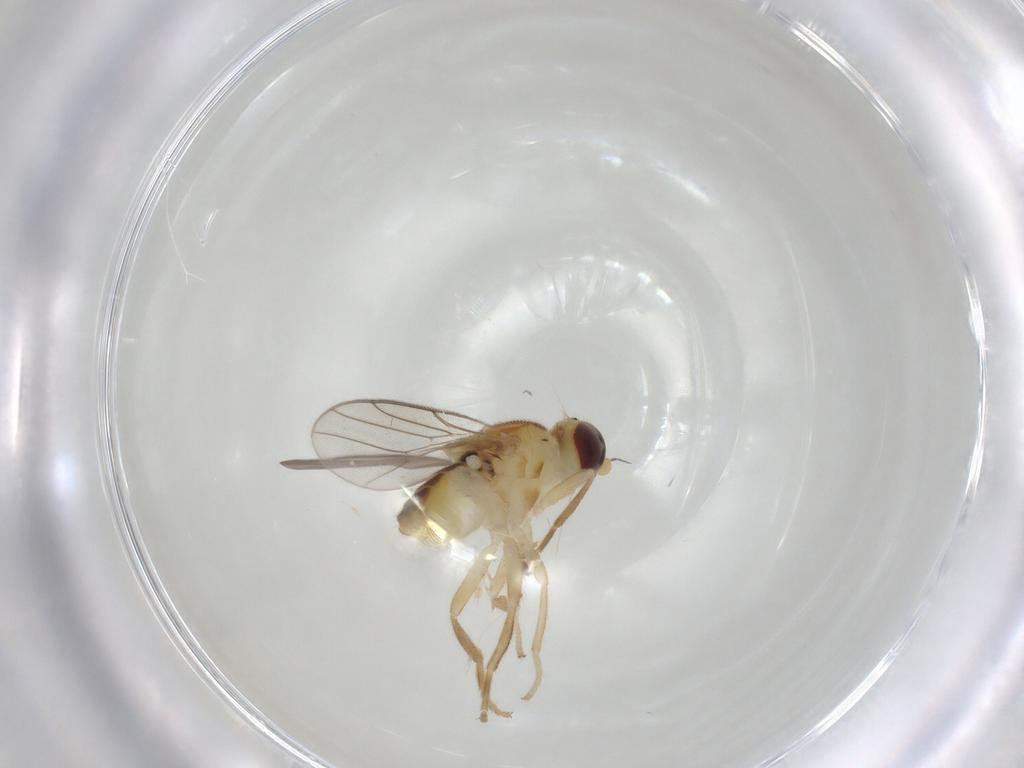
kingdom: Animalia
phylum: Arthropoda
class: Insecta
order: Diptera
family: Chloropidae
